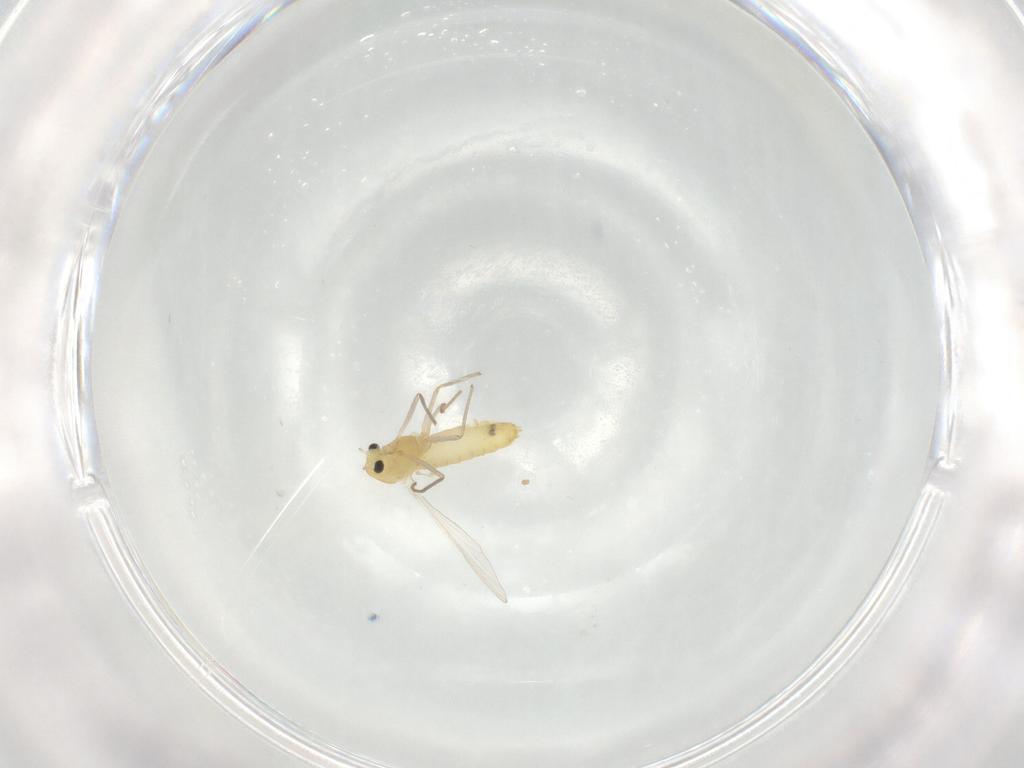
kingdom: Animalia
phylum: Arthropoda
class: Insecta
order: Diptera
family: Chironomidae
